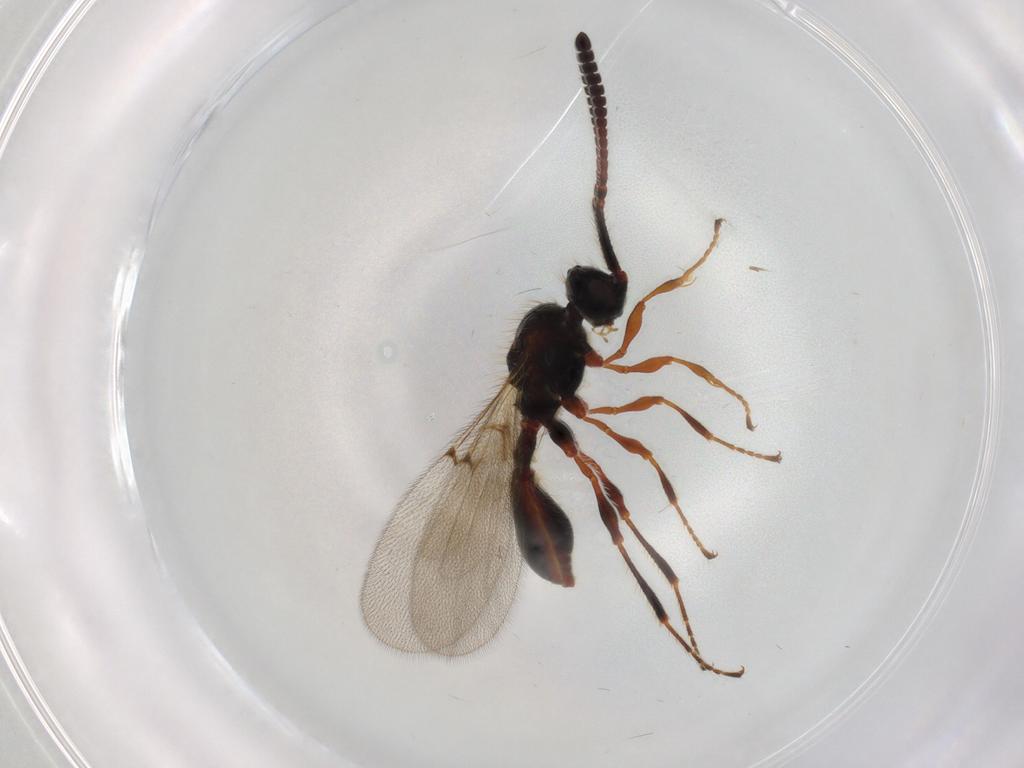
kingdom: Animalia
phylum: Arthropoda
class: Insecta
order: Hymenoptera
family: Diapriidae
